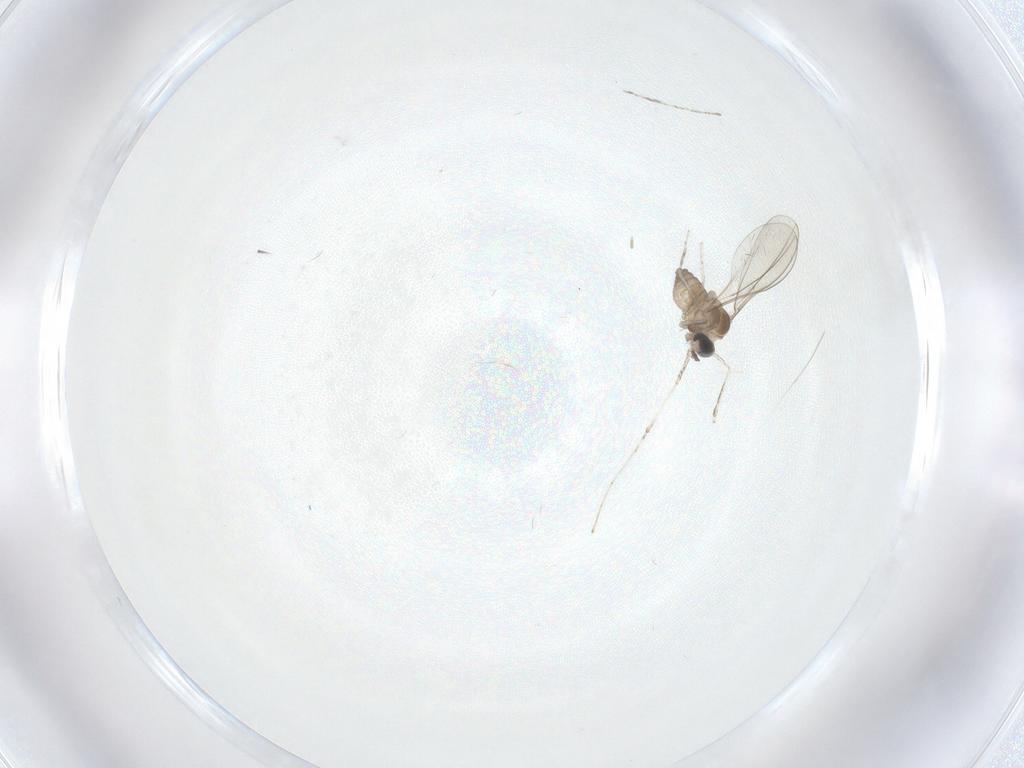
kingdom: Animalia
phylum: Arthropoda
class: Insecta
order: Diptera
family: Cecidomyiidae
